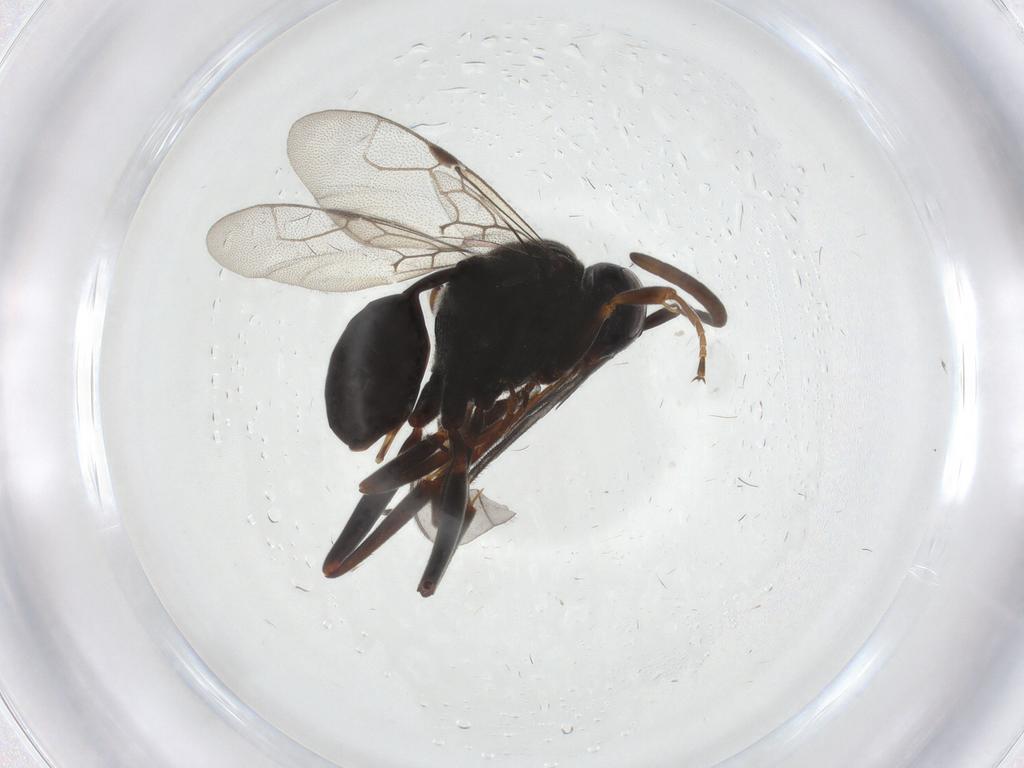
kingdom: Animalia
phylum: Arthropoda
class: Insecta
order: Hymenoptera
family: Evaniidae
